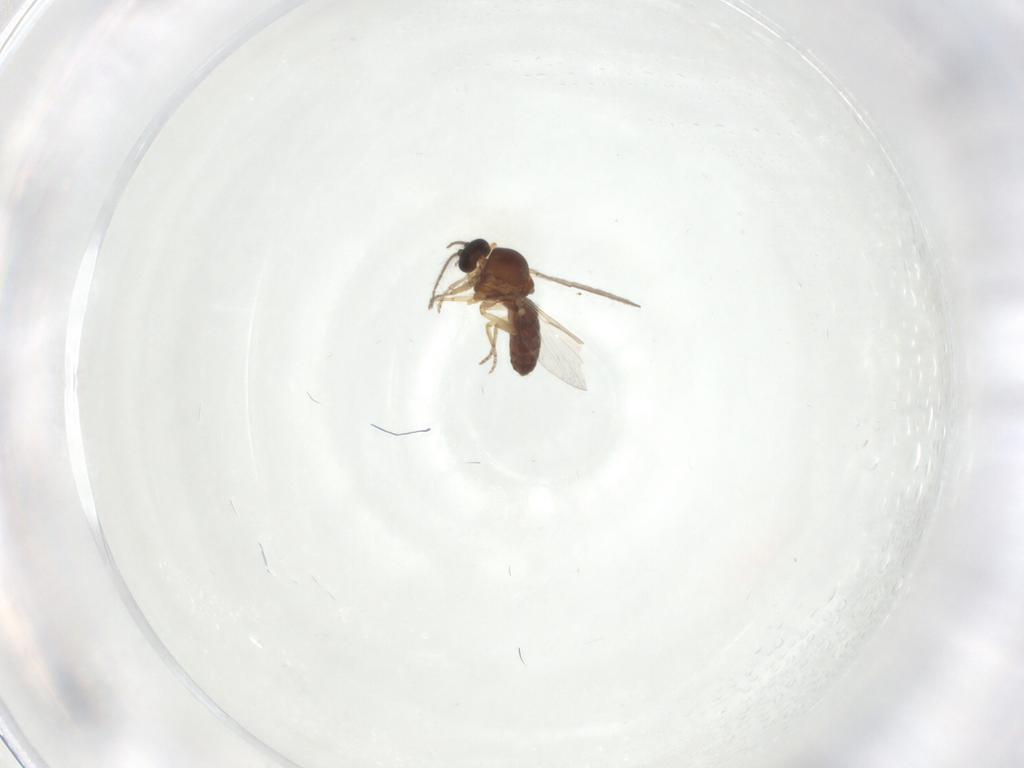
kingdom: Animalia
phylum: Arthropoda
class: Insecta
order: Diptera
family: Ceratopogonidae
